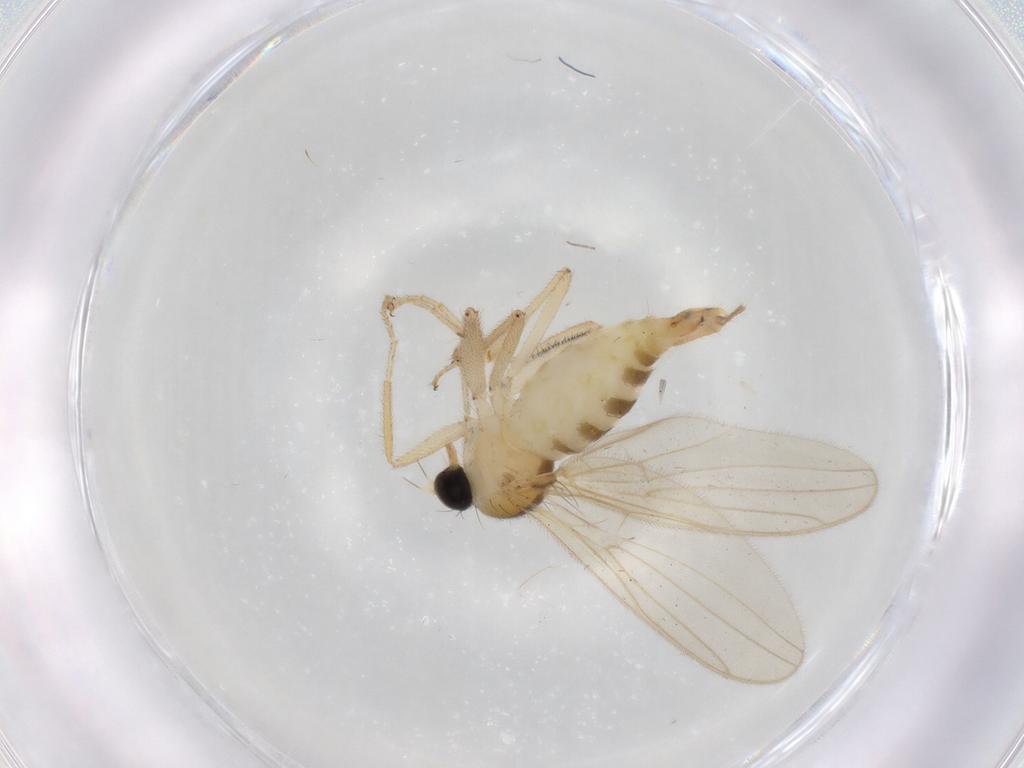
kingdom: Animalia
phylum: Arthropoda
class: Insecta
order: Diptera
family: Hybotidae
